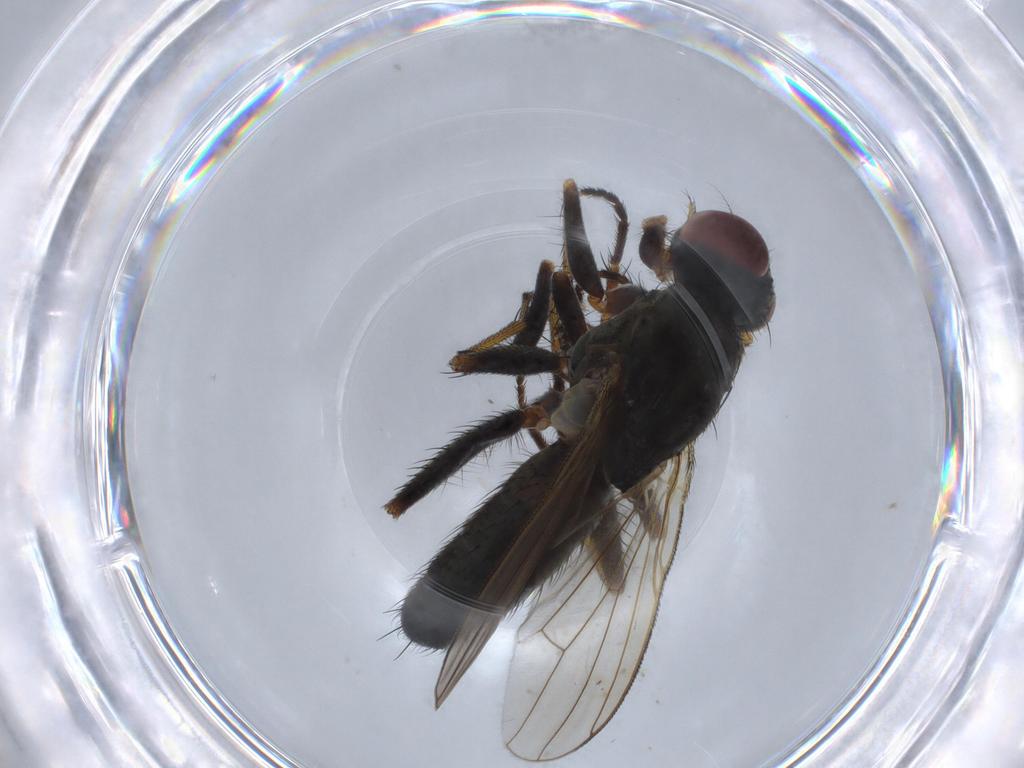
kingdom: Animalia
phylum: Arthropoda
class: Insecta
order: Diptera
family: Muscidae
